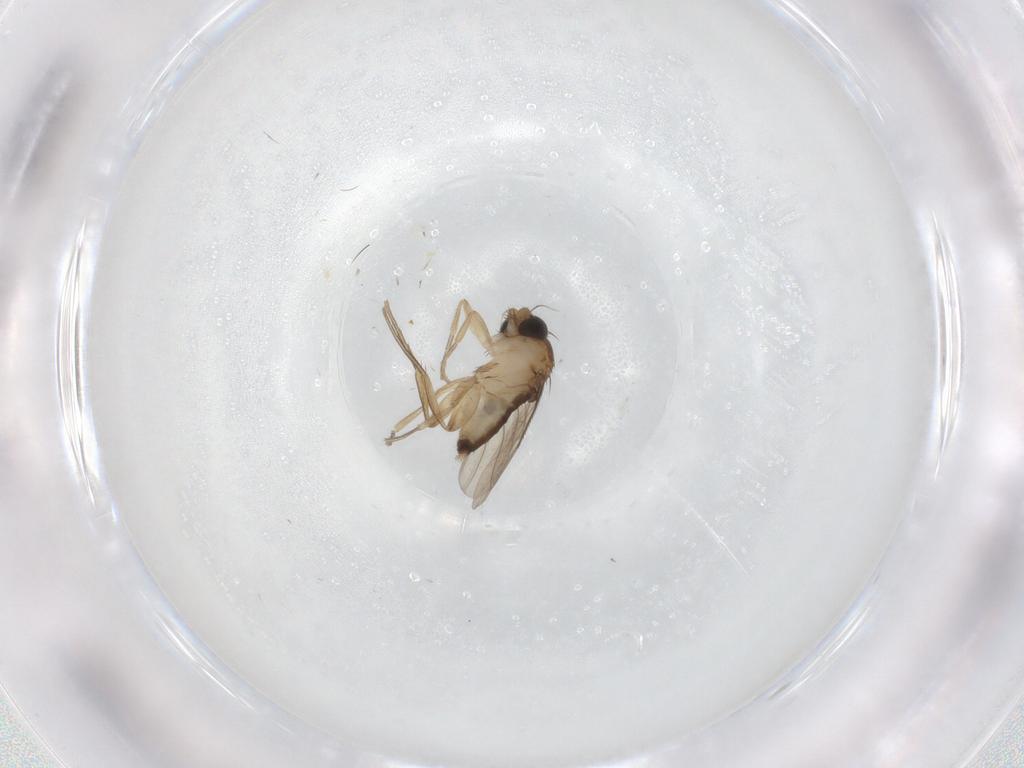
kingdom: Animalia
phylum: Arthropoda
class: Insecta
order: Diptera
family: Phoridae
